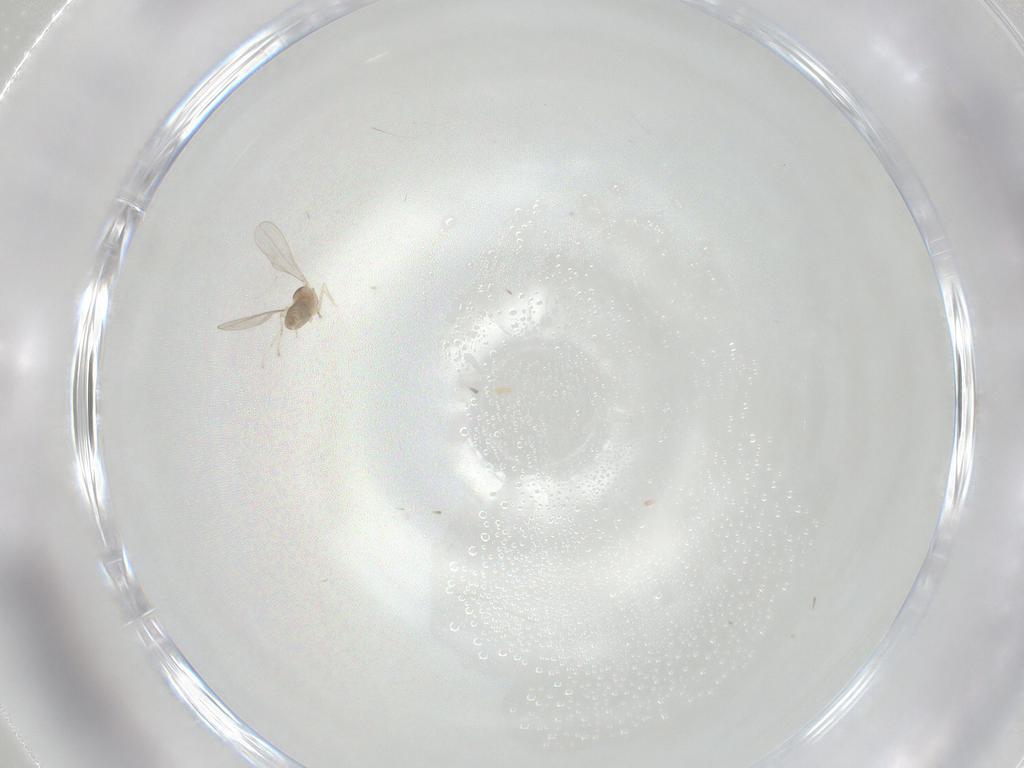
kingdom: Animalia
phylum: Arthropoda
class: Insecta
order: Diptera
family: Cecidomyiidae
